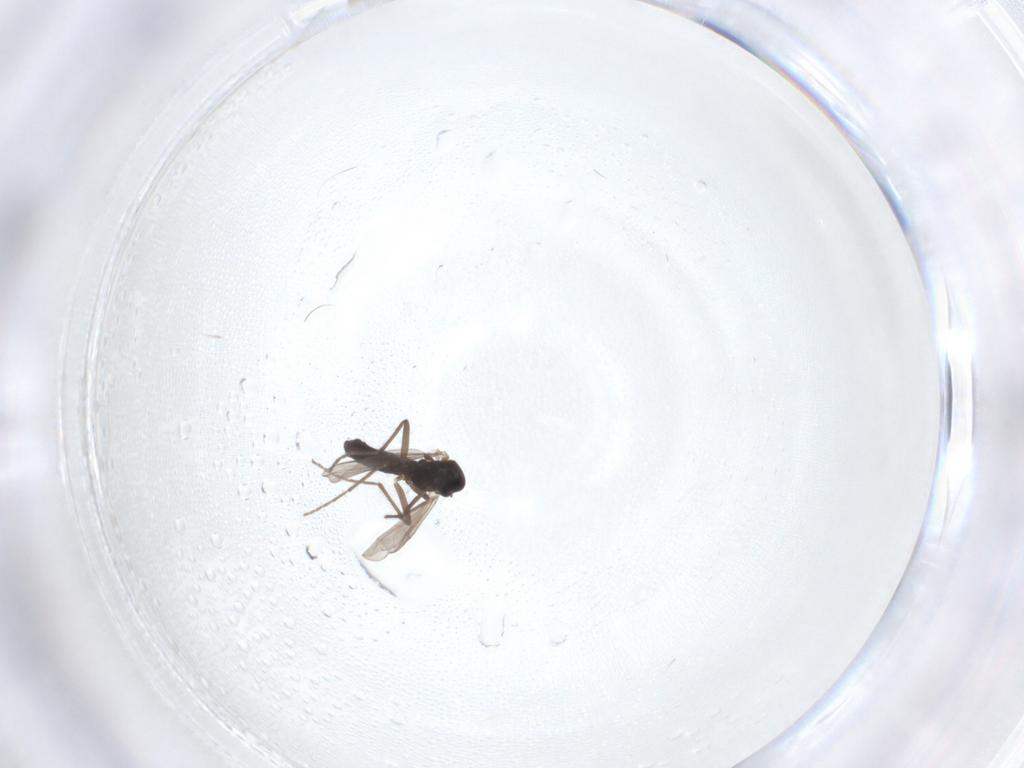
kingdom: Animalia
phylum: Arthropoda
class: Insecta
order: Diptera
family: Chironomidae
